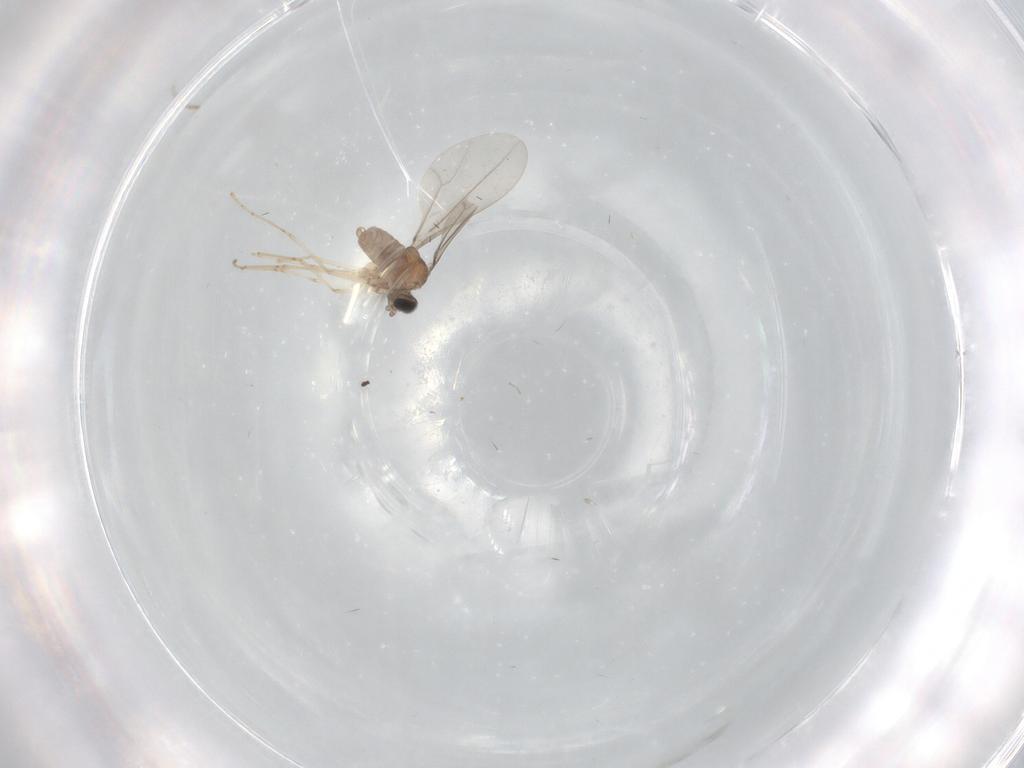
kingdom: Animalia
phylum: Arthropoda
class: Insecta
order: Diptera
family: Cecidomyiidae
